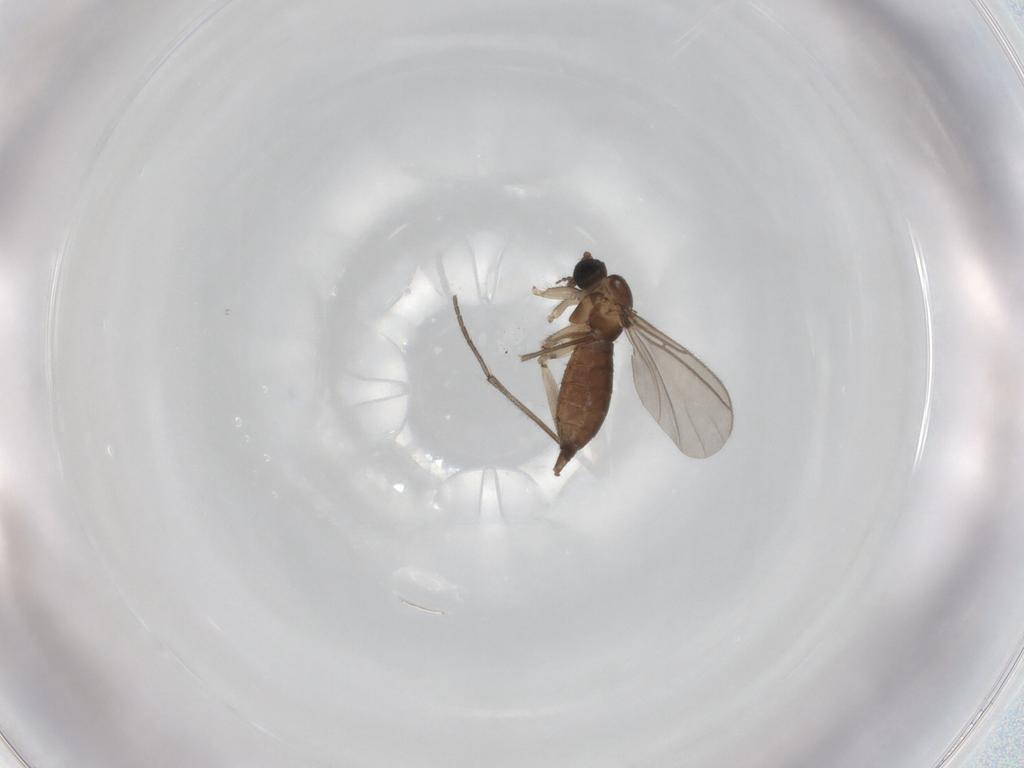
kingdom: Animalia
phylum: Arthropoda
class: Insecta
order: Diptera
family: Sciaridae
